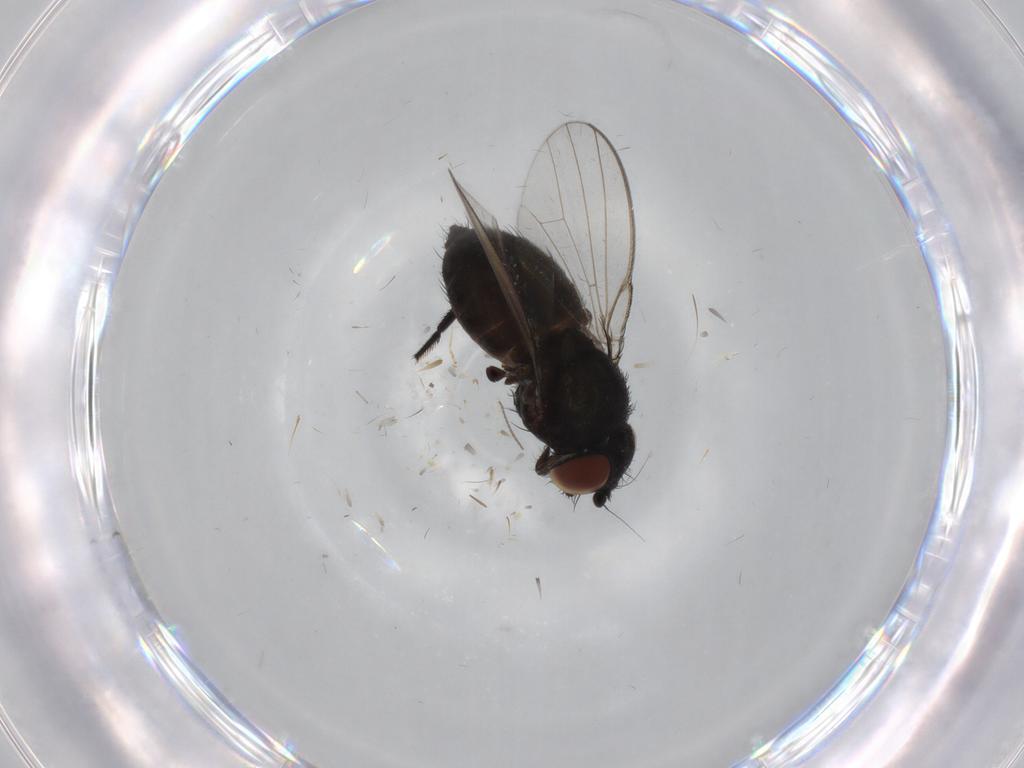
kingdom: Animalia
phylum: Arthropoda
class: Insecta
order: Diptera
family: Milichiidae
